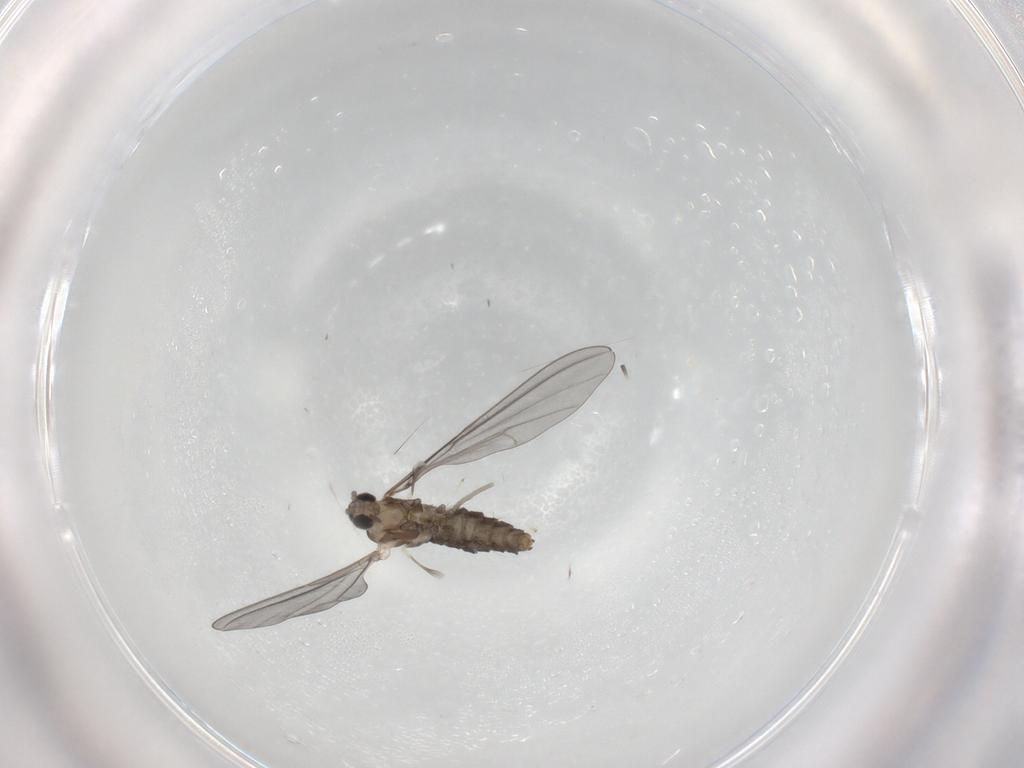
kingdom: Animalia
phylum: Arthropoda
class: Insecta
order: Diptera
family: Cecidomyiidae
